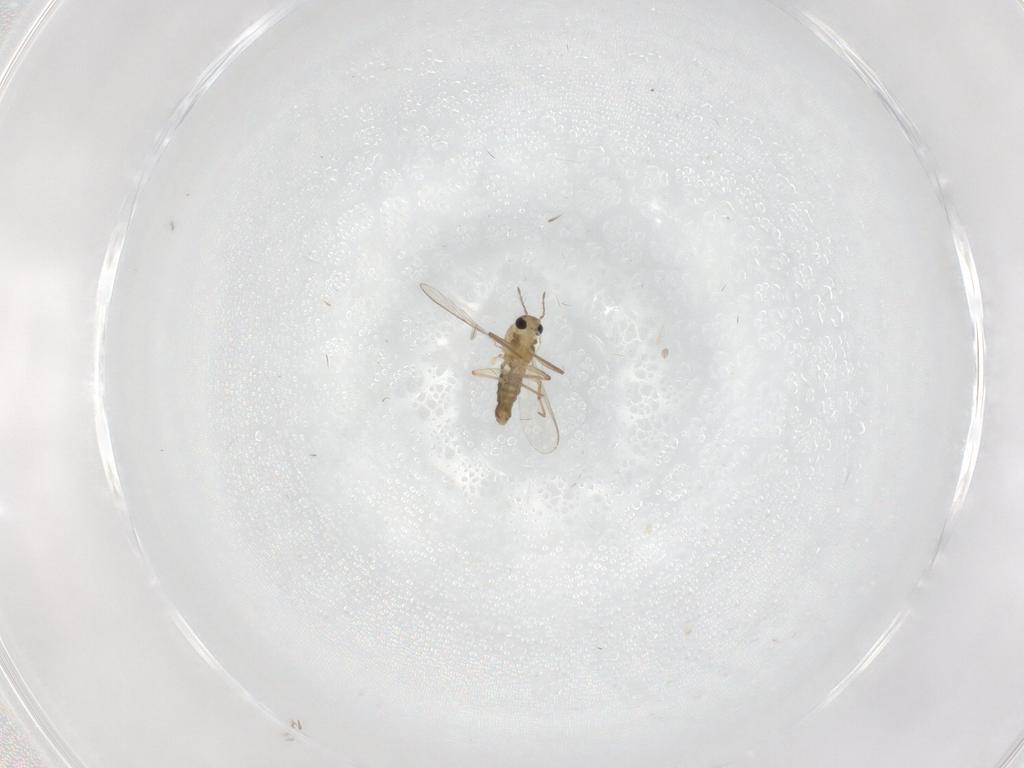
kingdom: Animalia
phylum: Arthropoda
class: Insecta
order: Diptera
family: Chironomidae
